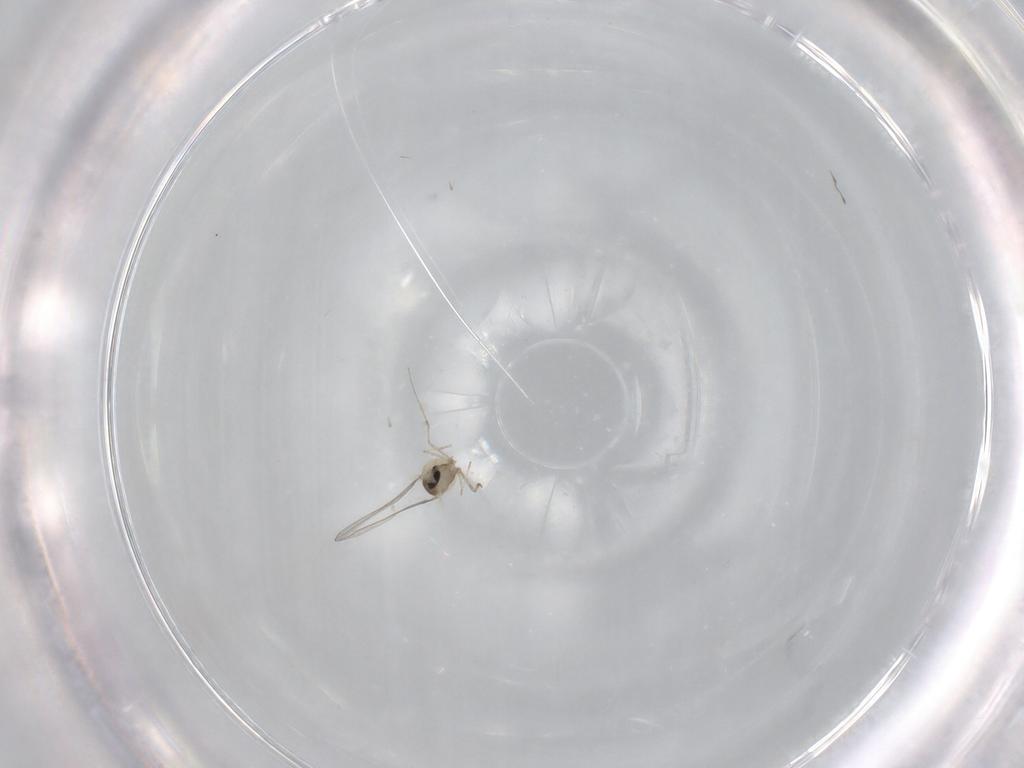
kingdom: Animalia
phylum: Arthropoda
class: Insecta
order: Diptera
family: Cecidomyiidae
